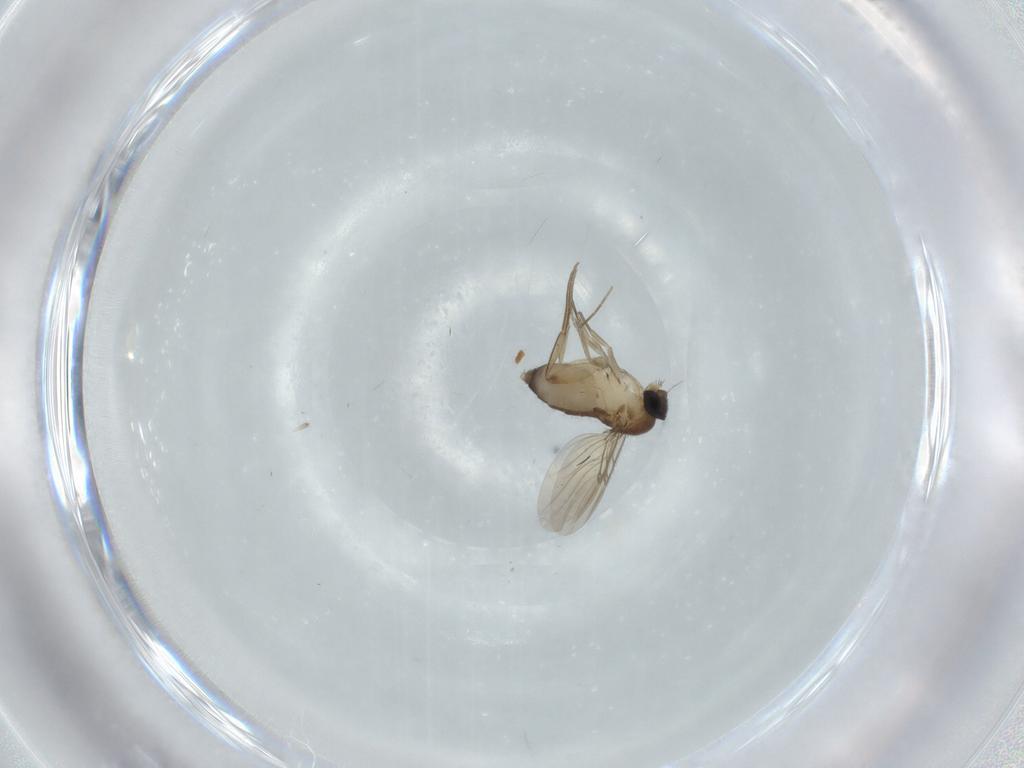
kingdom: Animalia
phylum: Arthropoda
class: Insecta
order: Diptera
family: Phoridae
